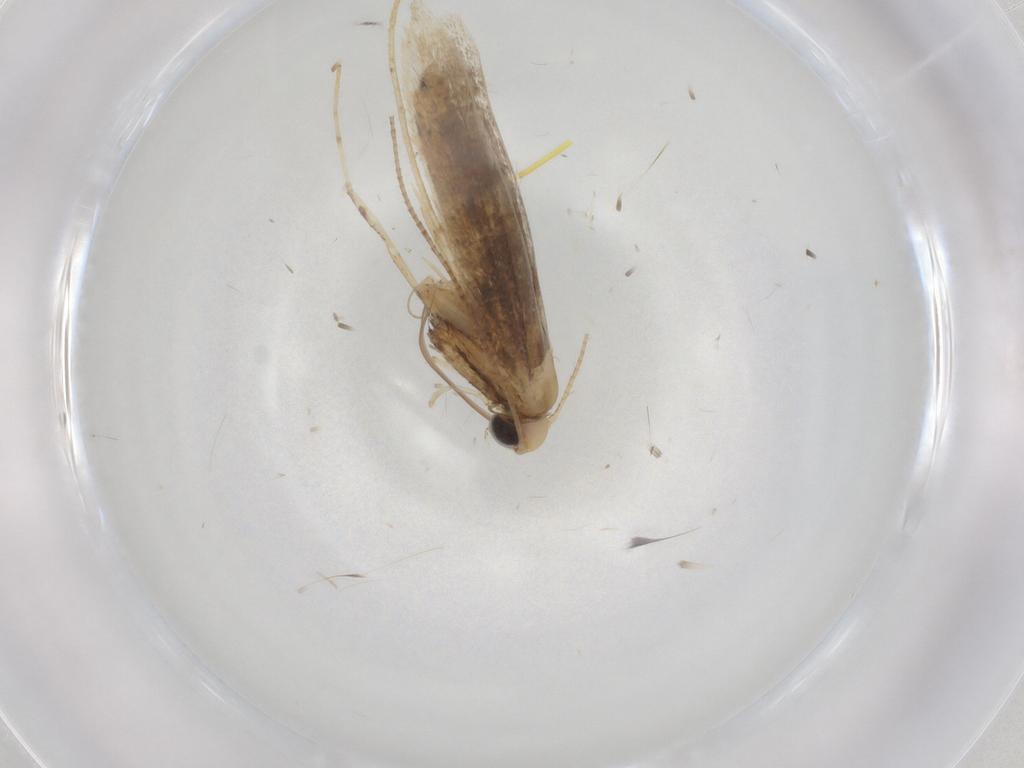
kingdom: Animalia
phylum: Arthropoda
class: Insecta
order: Lepidoptera
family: Gracillariidae
